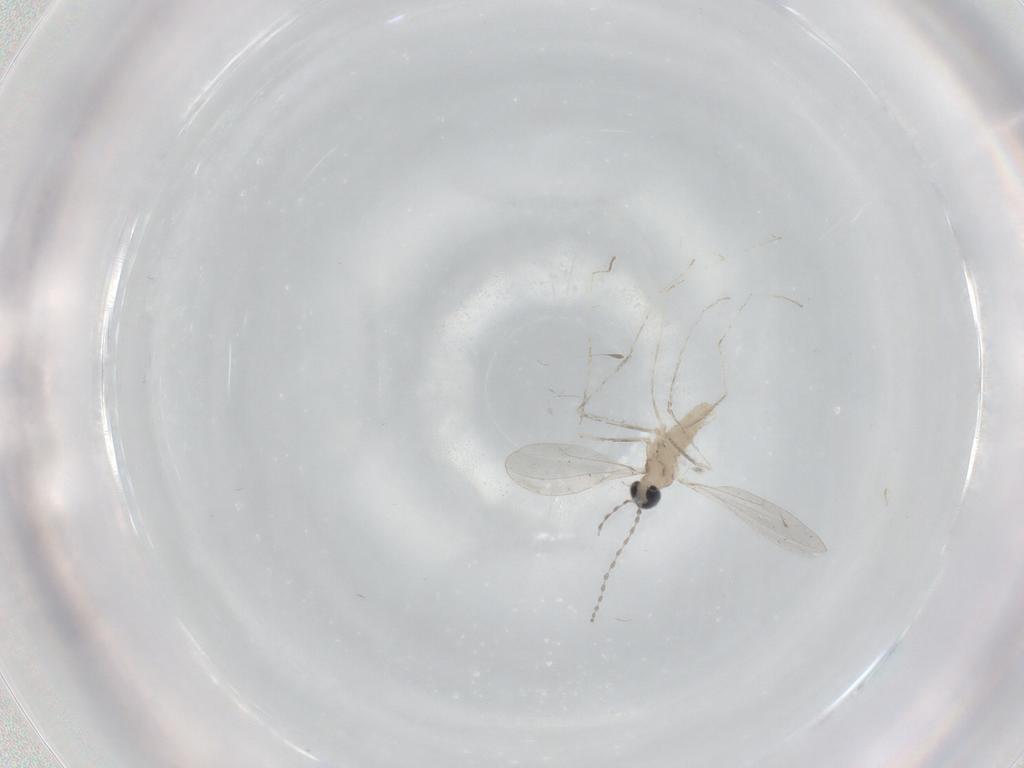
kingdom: Animalia
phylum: Arthropoda
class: Insecta
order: Diptera
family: Cecidomyiidae
